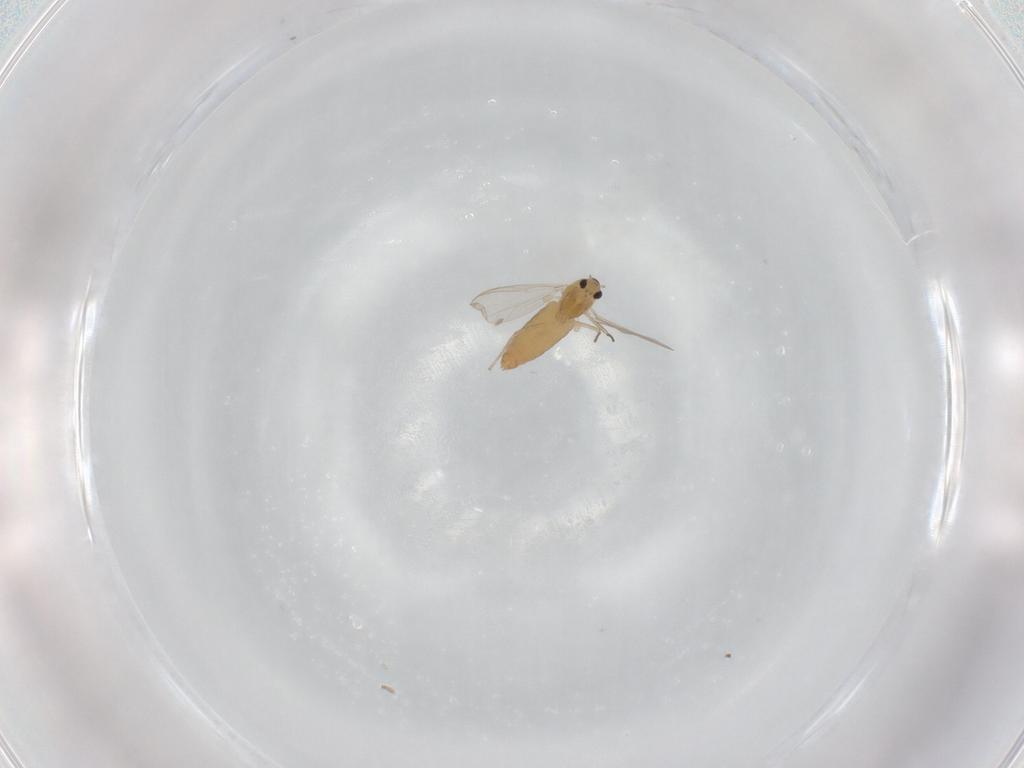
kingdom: Animalia
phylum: Arthropoda
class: Insecta
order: Diptera
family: Chironomidae
